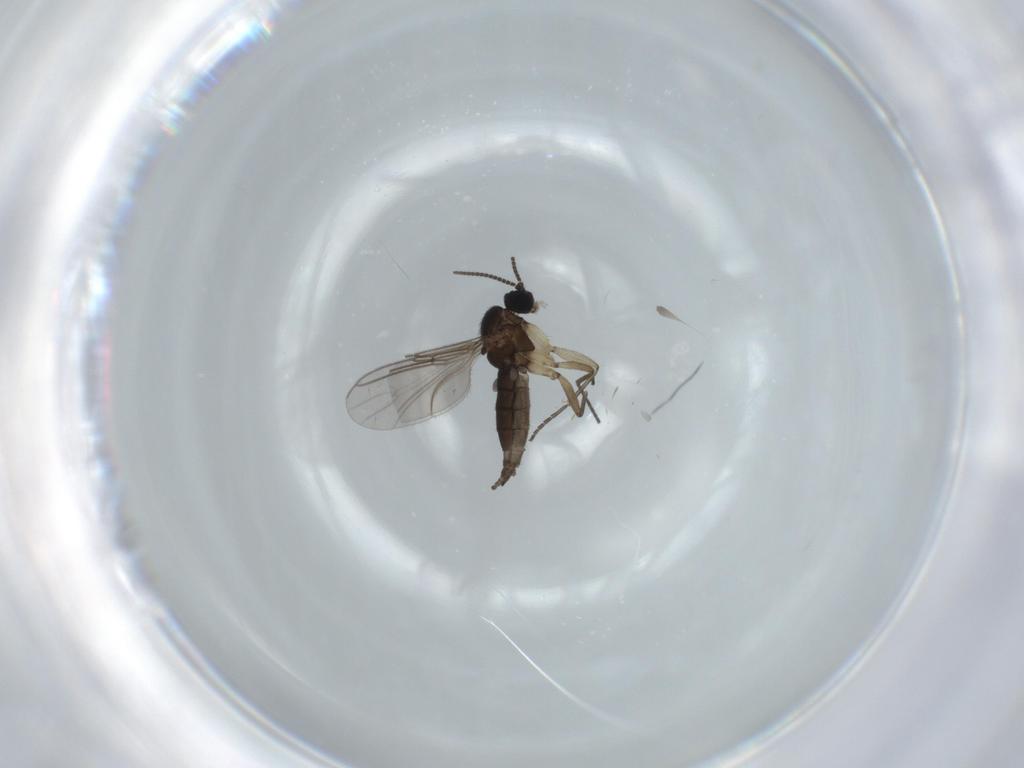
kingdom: Animalia
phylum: Arthropoda
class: Insecta
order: Diptera
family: Sciaridae
